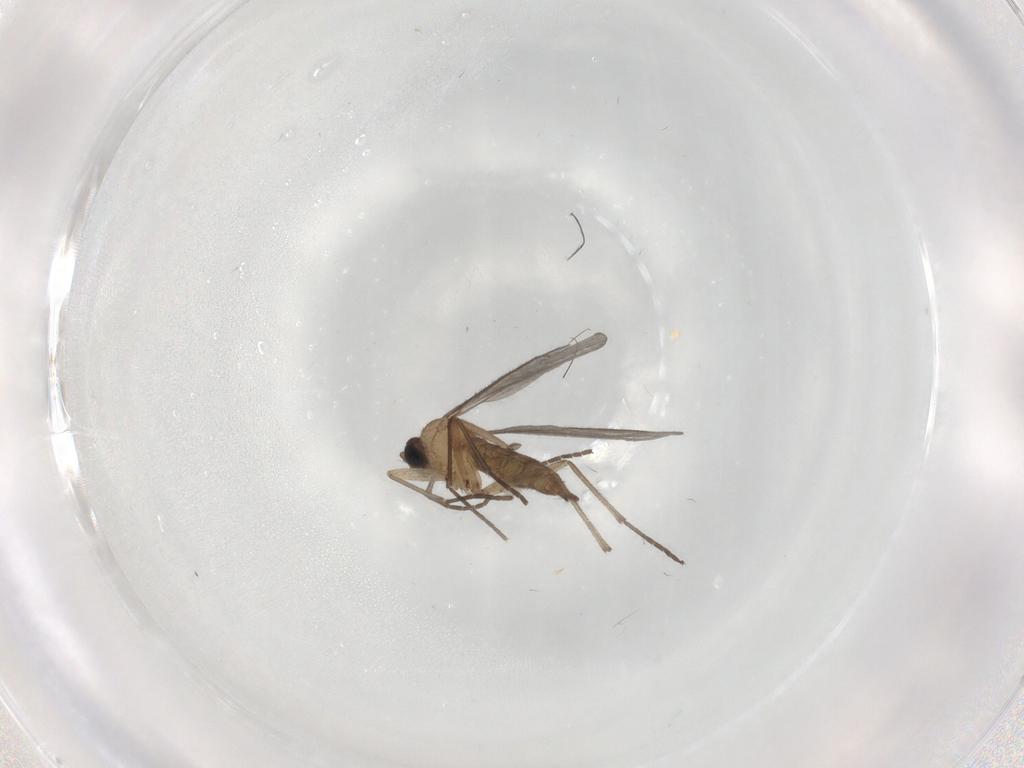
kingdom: Animalia
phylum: Arthropoda
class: Insecta
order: Diptera
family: Sciaridae
